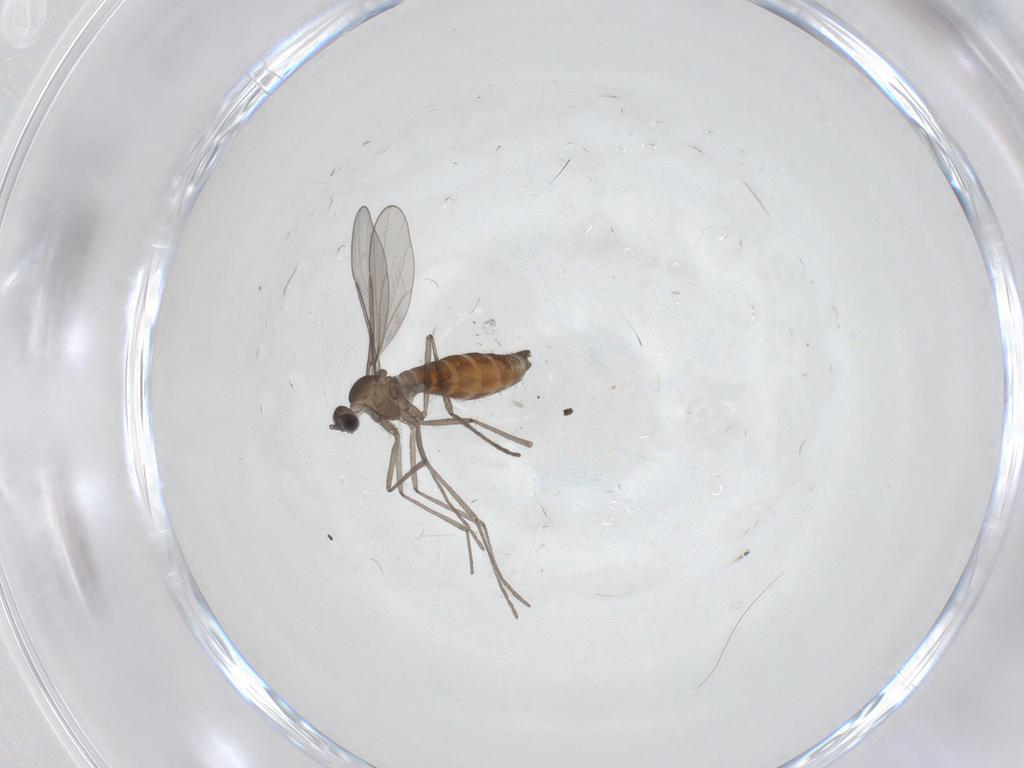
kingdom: Animalia
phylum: Arthropoda
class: Insecta
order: Diptera
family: Cecidomyiidae
